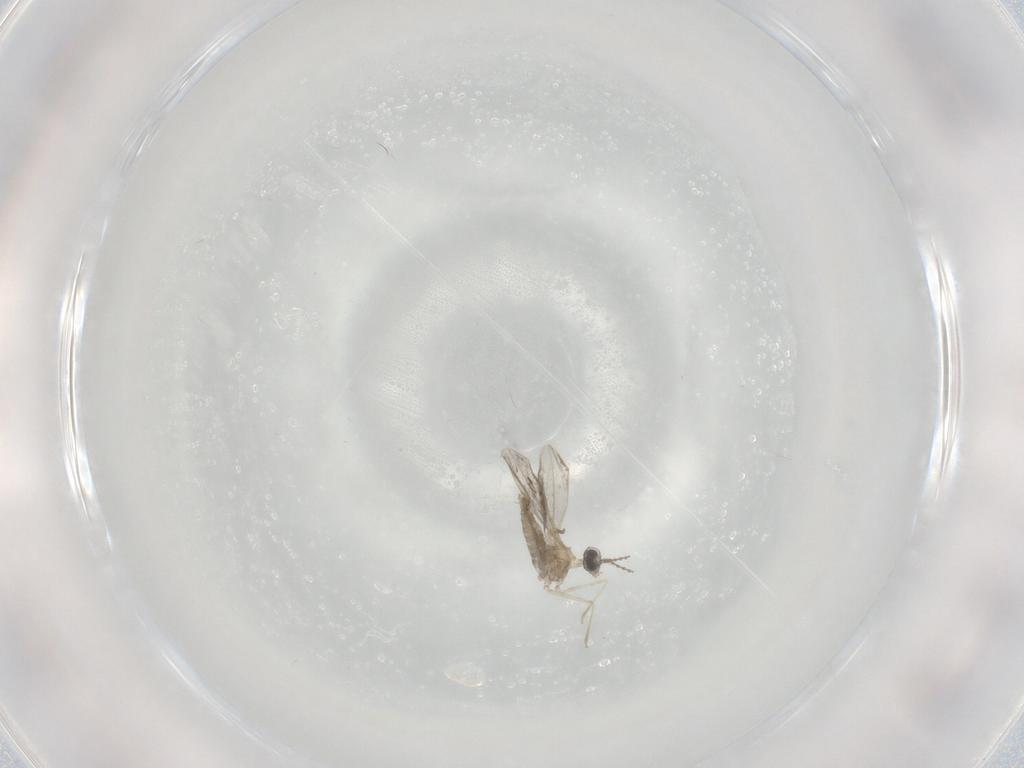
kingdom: Animalia
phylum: Arthropoda
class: Insecta
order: Diptera
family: Cecidomyiidae
